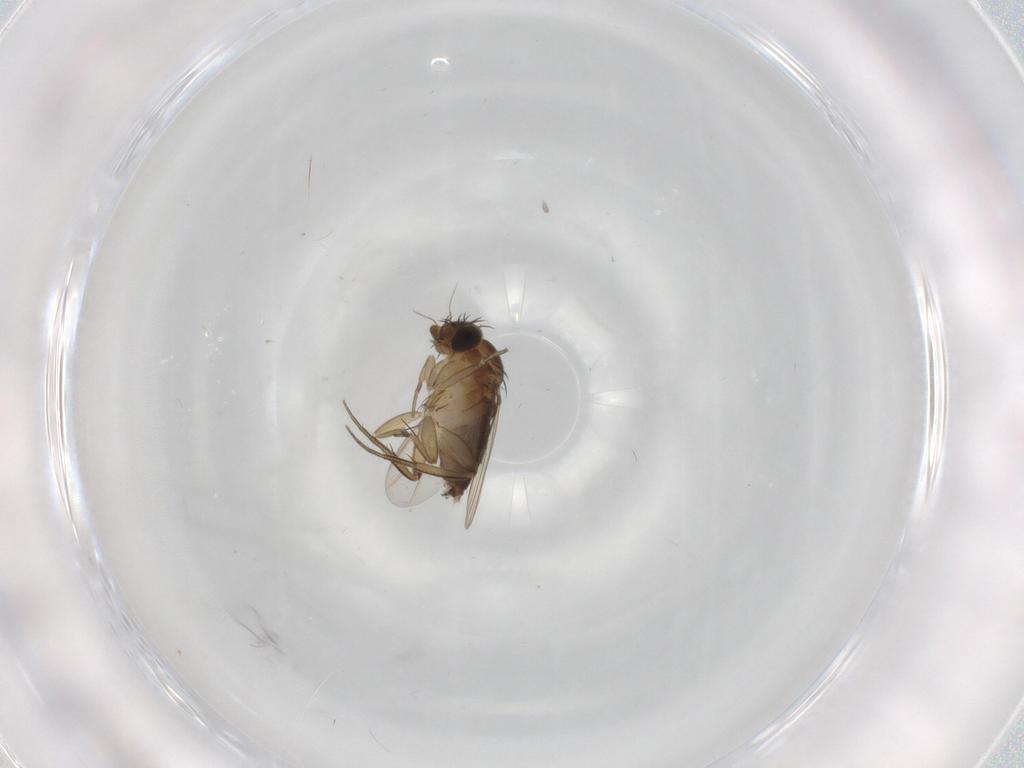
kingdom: Animalia
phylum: Arthropoda
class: Insecta
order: Diptera
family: Phoridae
